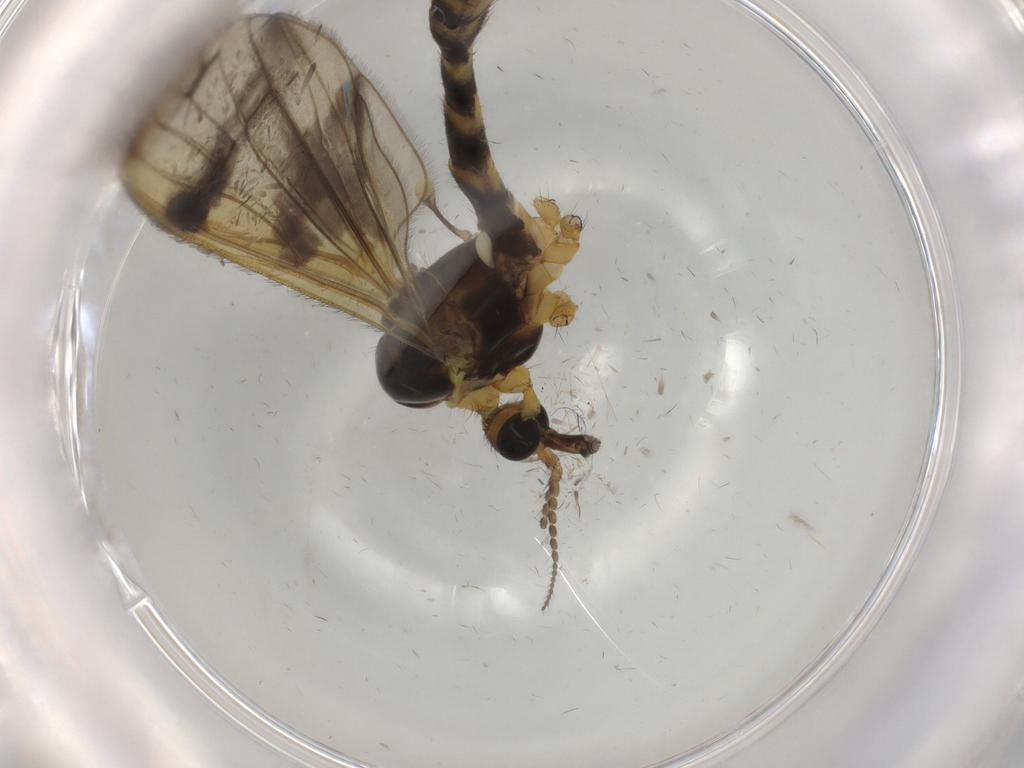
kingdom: Animalia
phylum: Arthropoda
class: Insecta
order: Diptera
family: Limoniidae
